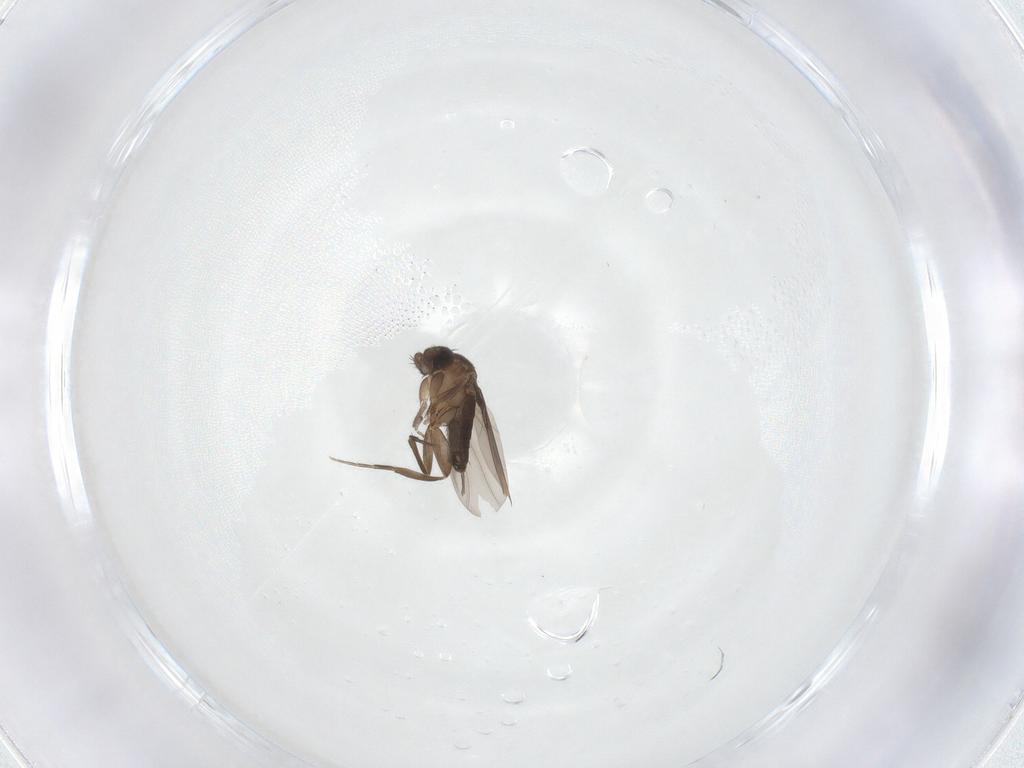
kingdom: Animalia
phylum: Arthropoda
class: Insecta
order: Diptera
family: Phoridae
